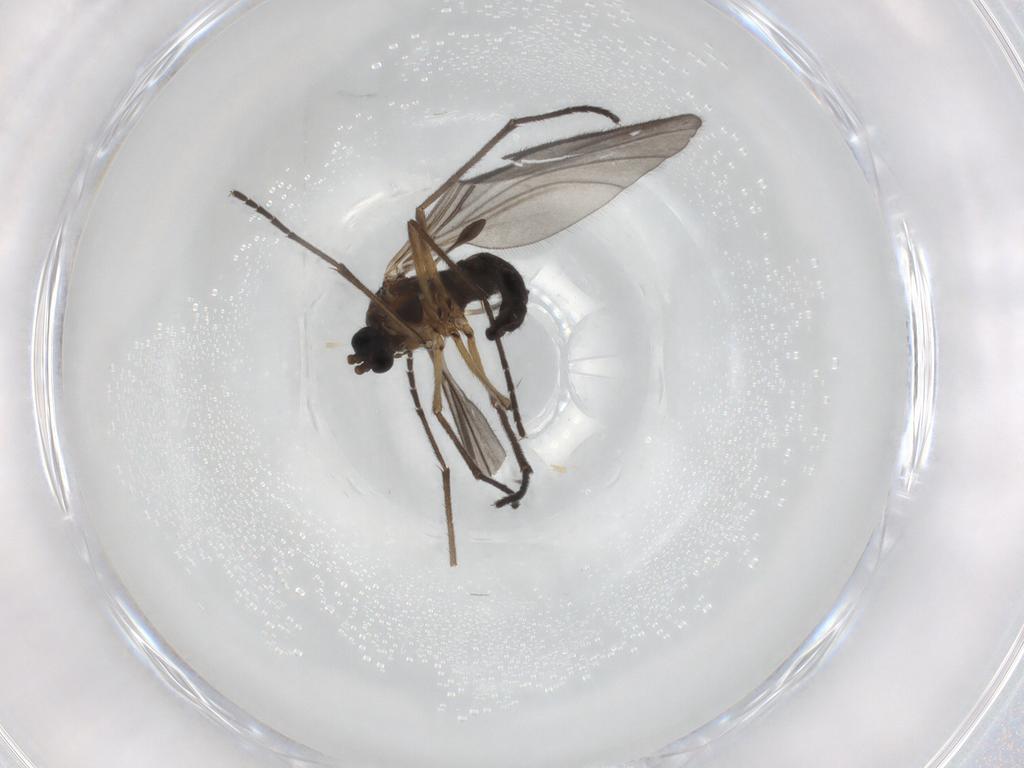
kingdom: Animalia
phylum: Arthropoda
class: Insecta
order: Diptera
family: Sciaridae
